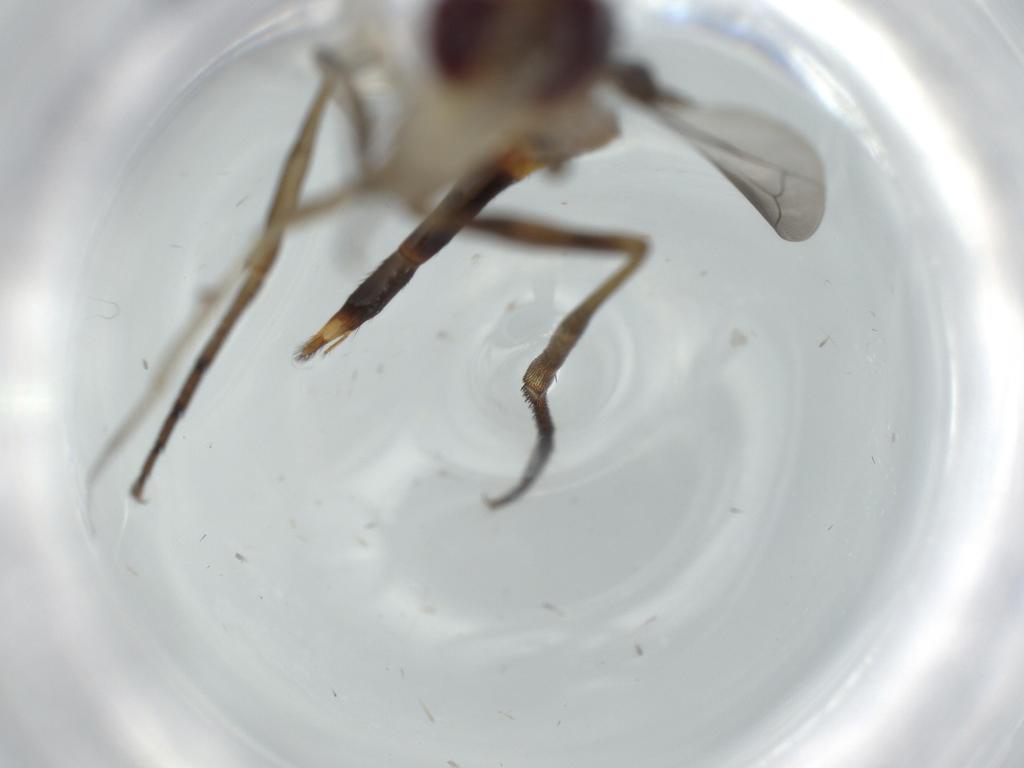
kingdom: Animalia
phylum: Arthropoda
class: Insecta
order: Diptera
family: Conopidae
